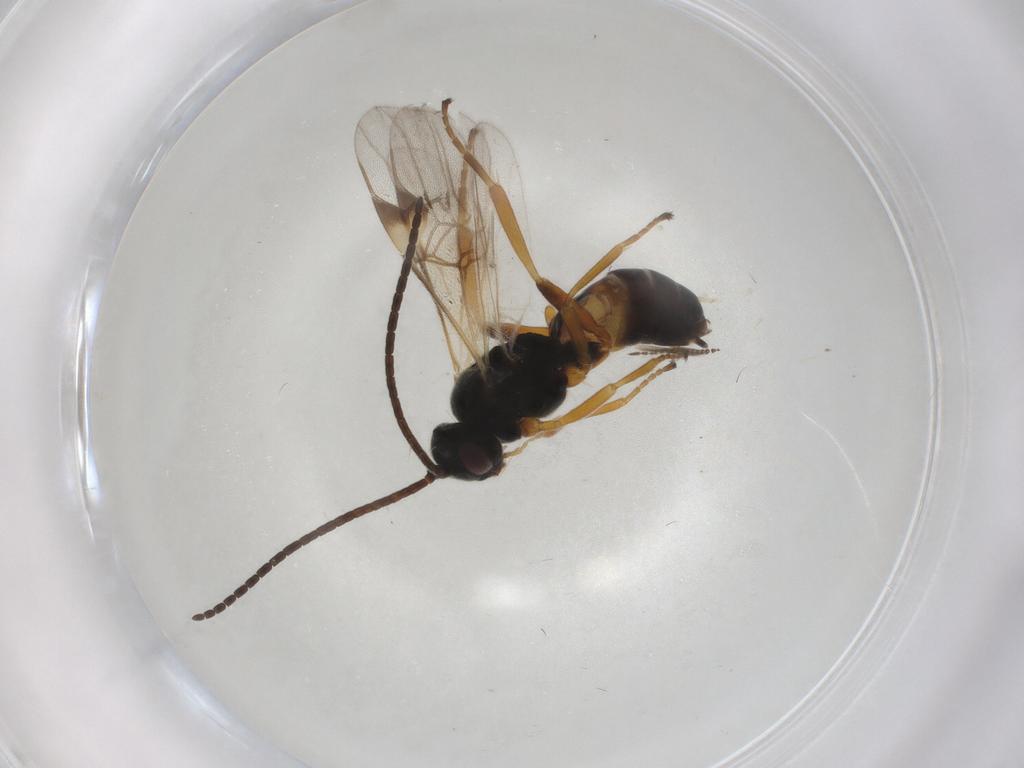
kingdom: Animalia
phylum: Arthropoda
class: Insecta
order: Hymenoptera
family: Braconidae
